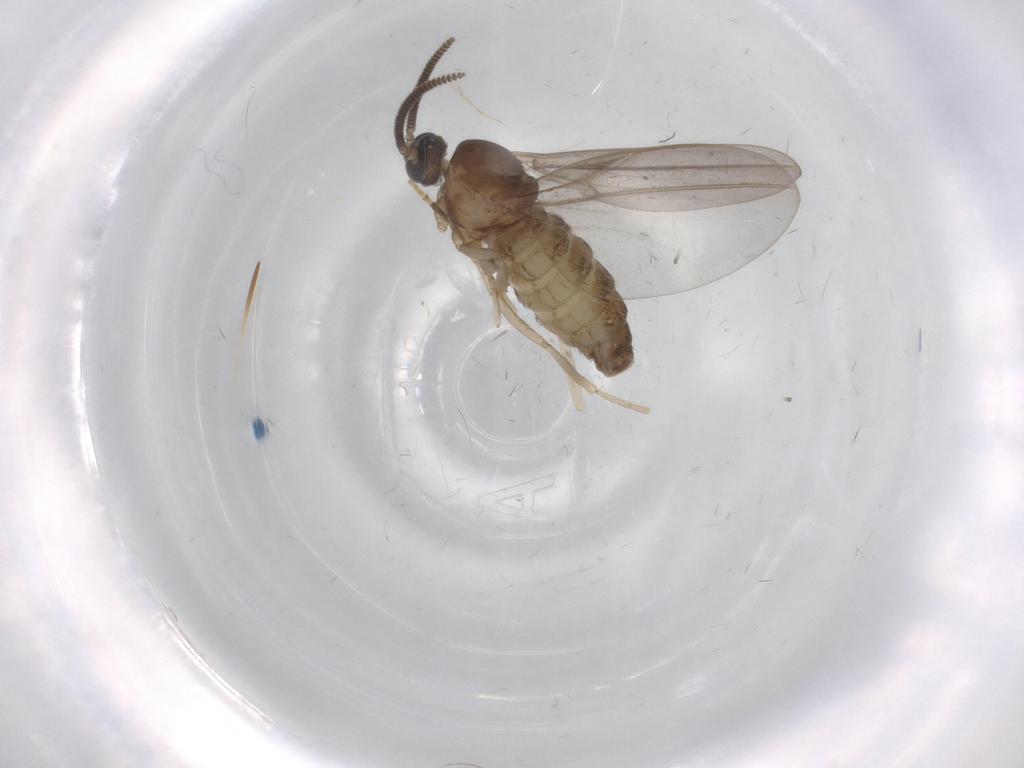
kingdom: Animalia
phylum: Arthropoda
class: Insecta
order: Diptera
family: Cecidomyiidae
